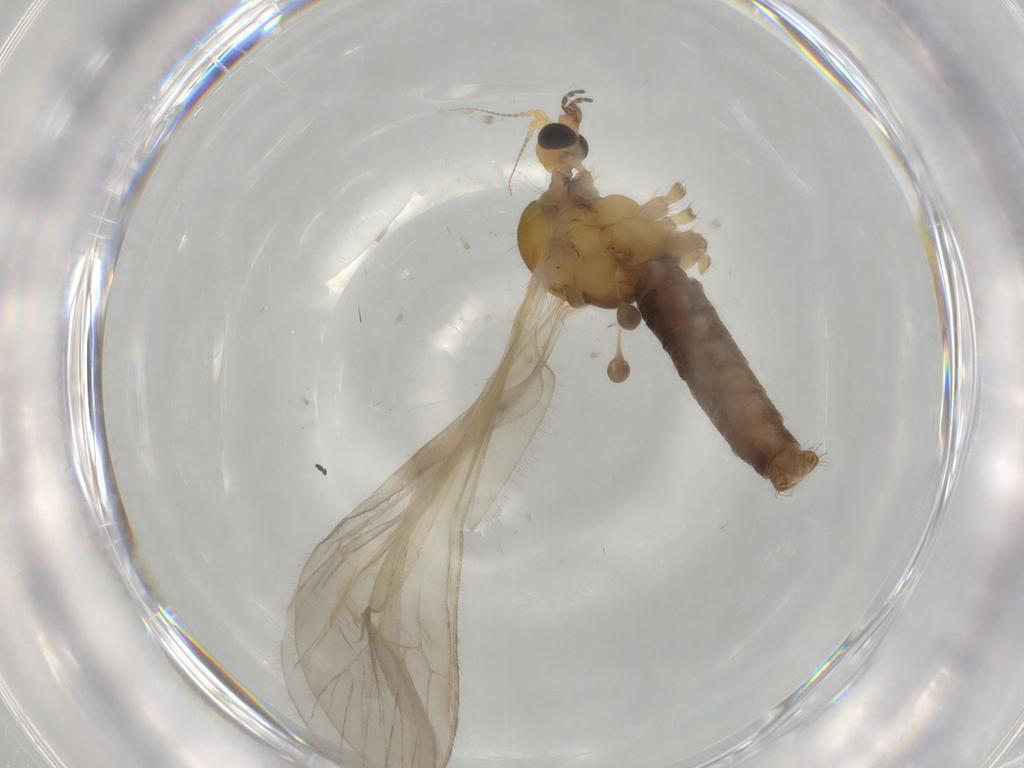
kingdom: Animalia
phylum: Arthropoda
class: Insecta
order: Diptera
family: Limoniidae
